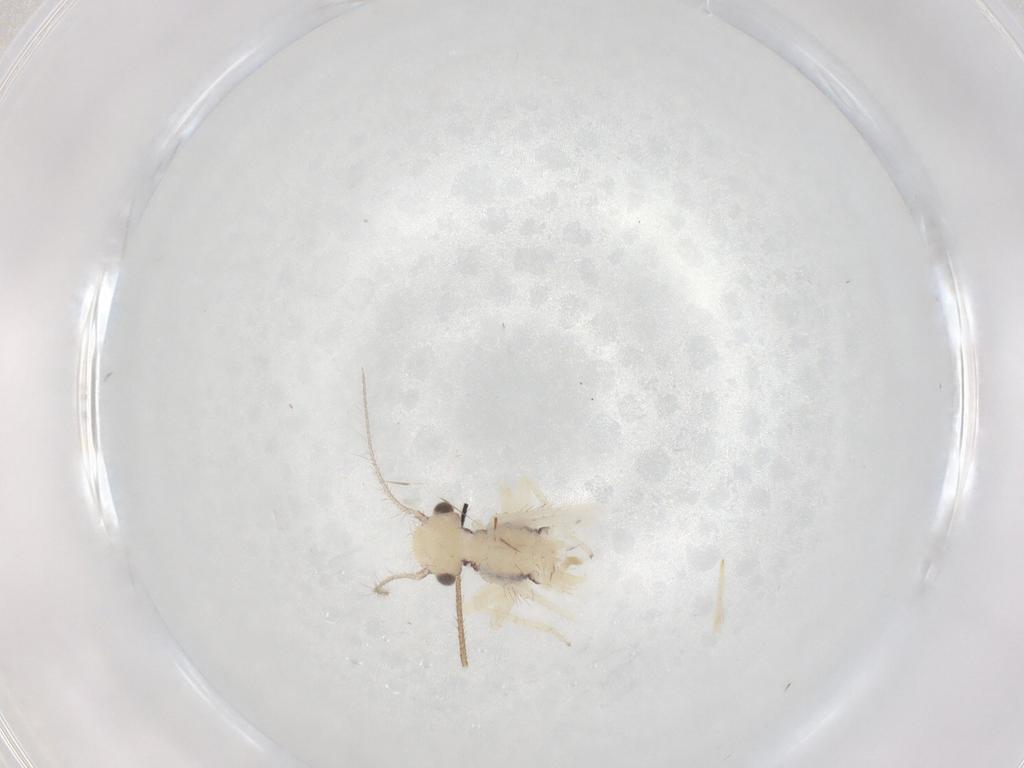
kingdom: Animalia
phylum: Arthropoda
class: Insecta
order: Psocodea
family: Philotarsidae
